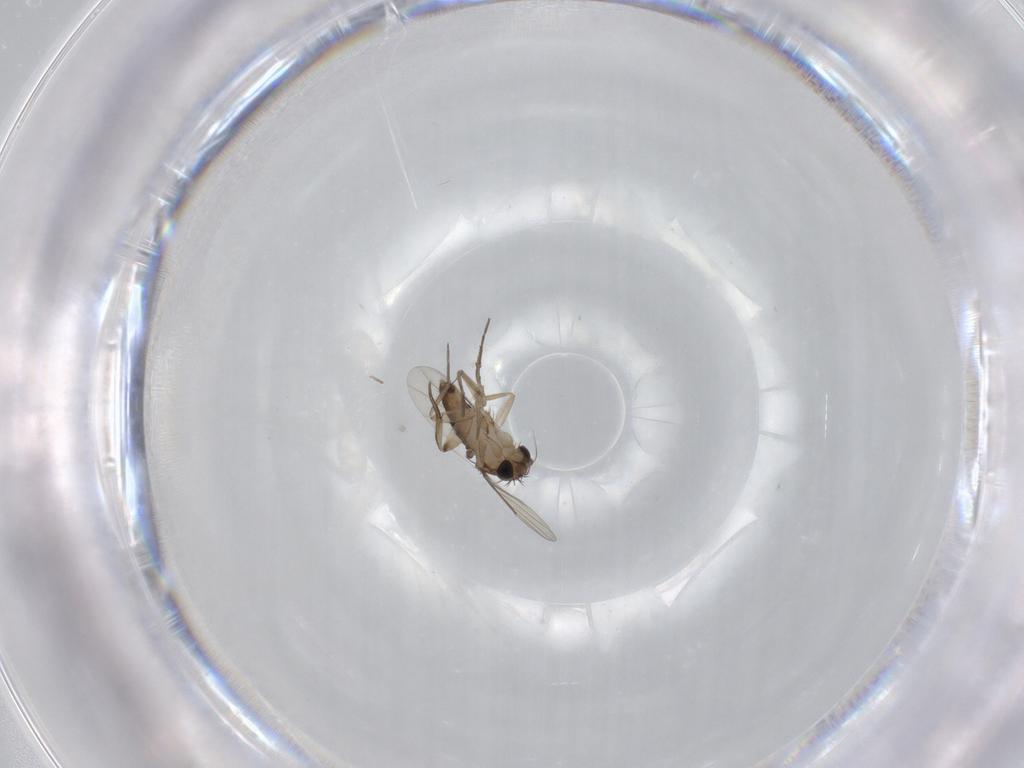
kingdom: Animalia
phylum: Arthropoda
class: Insecta
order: Diptera
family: Phoridae
